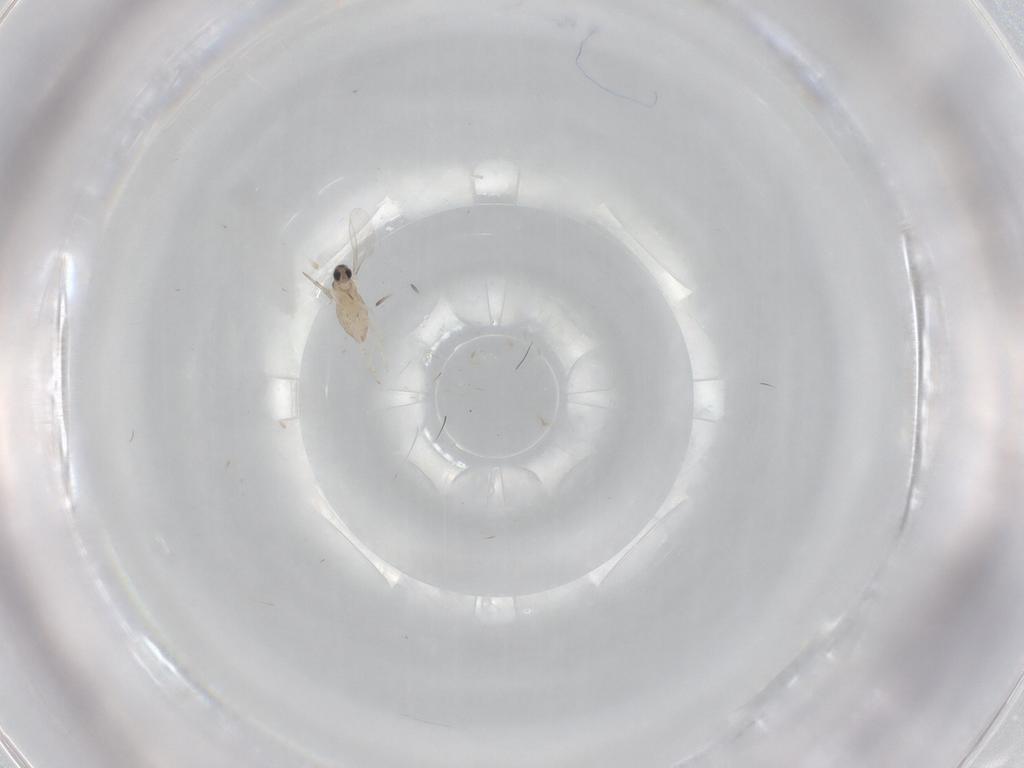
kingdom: Animalia
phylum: Arthropoda
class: Insecta
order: Diptera
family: Cecidomyiidae
